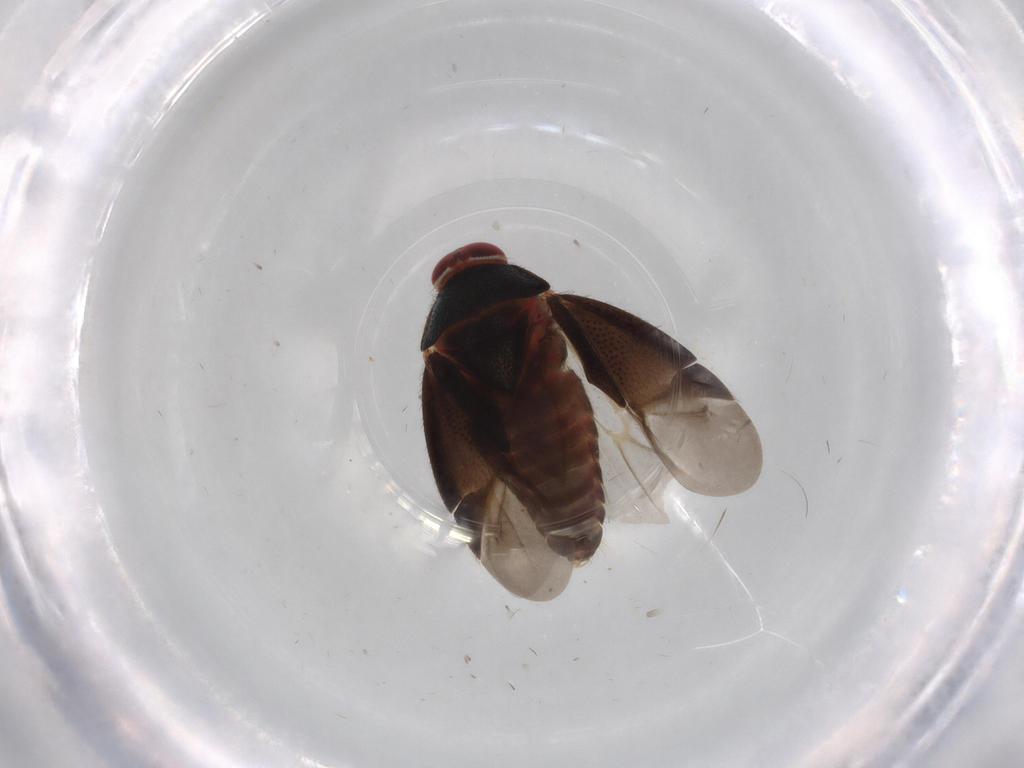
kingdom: Animalia
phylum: Arthropoda
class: Insecta
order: Hemiptera
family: Miridae
